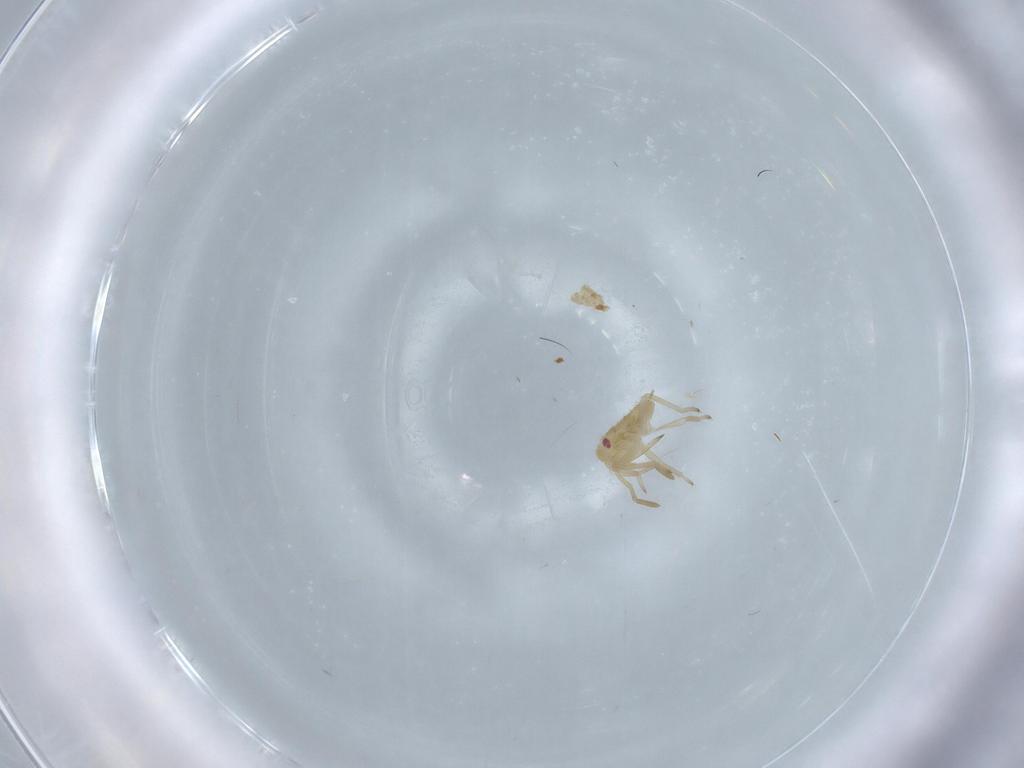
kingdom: Animalia
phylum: Arthropoda
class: Insecta
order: Hemiptera
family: Miridae
